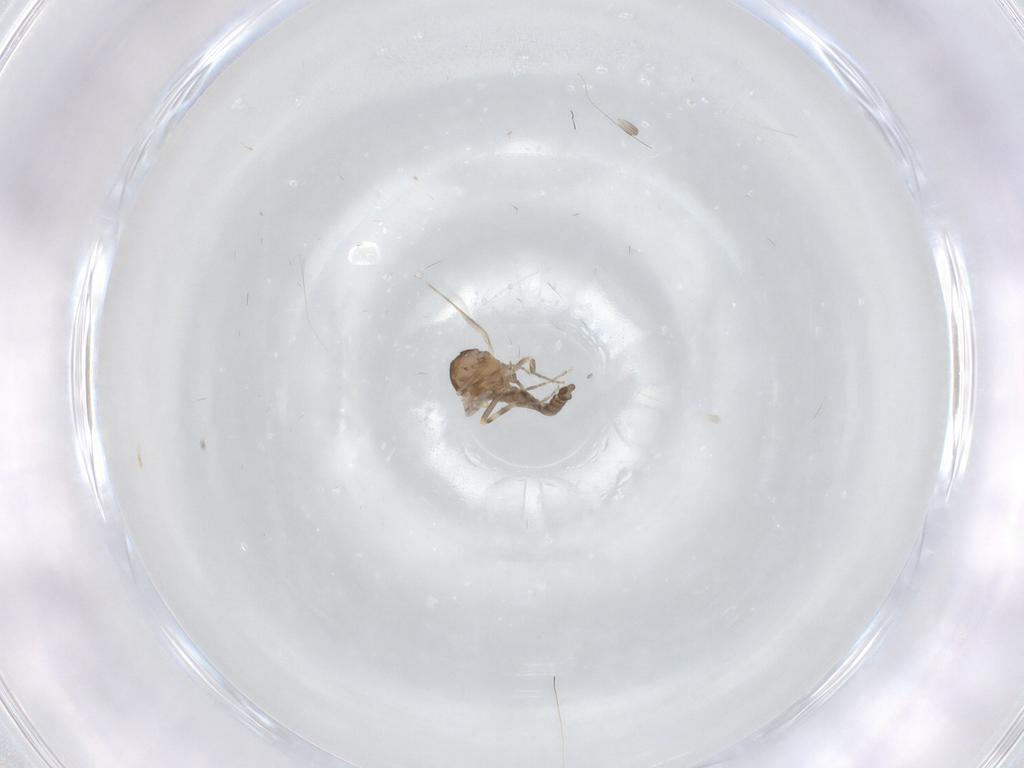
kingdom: Animalia
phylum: Arthropoda
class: Insecta
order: Diptera
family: Ceratopogonidae
